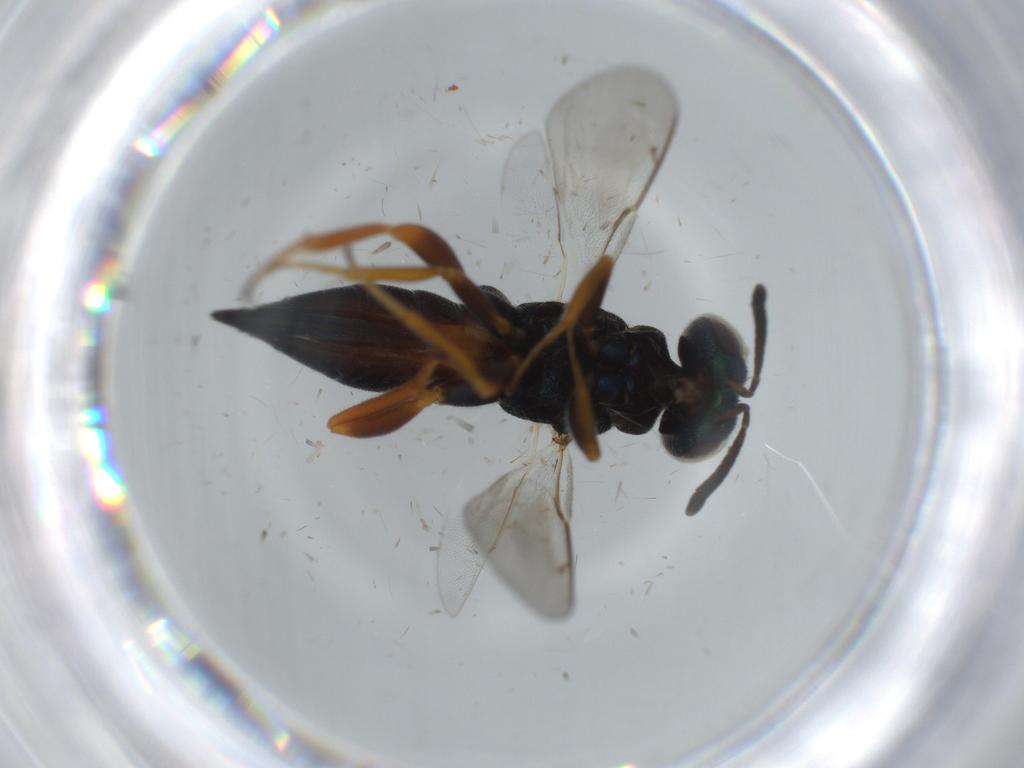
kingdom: Animalia
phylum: Arthropoda
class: Insecta
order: Hymenoptera
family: Lyciscidae
